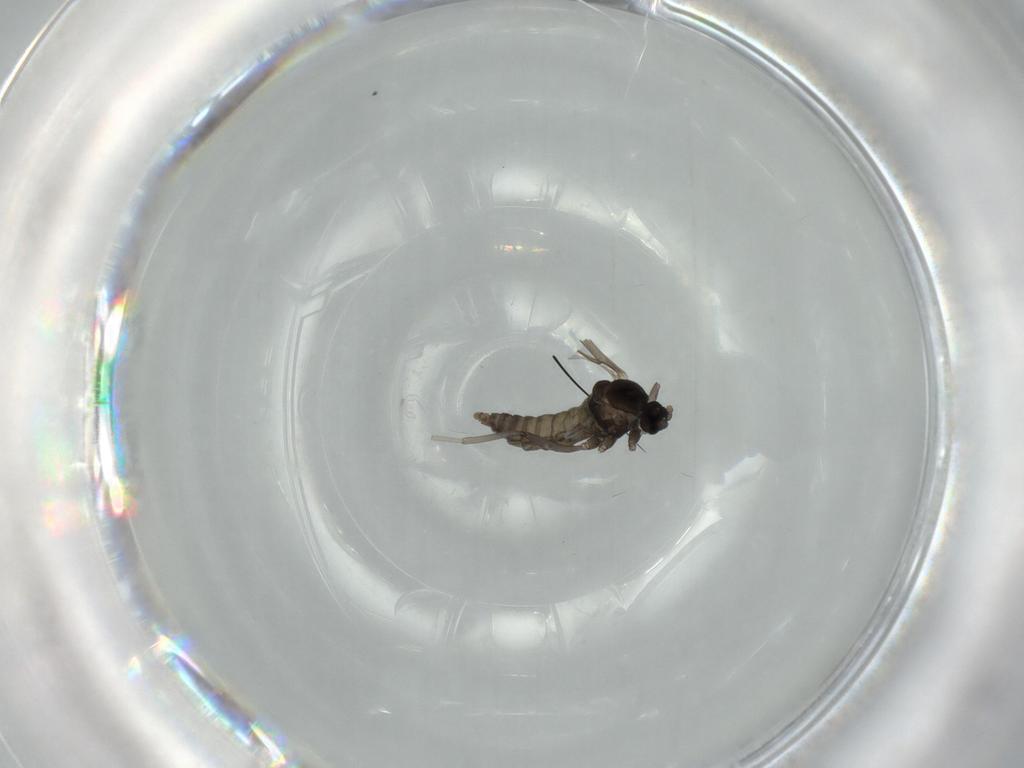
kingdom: Animalia
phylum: Arthropoda
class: Insecta
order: Diptera
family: Cecidomyiidae
